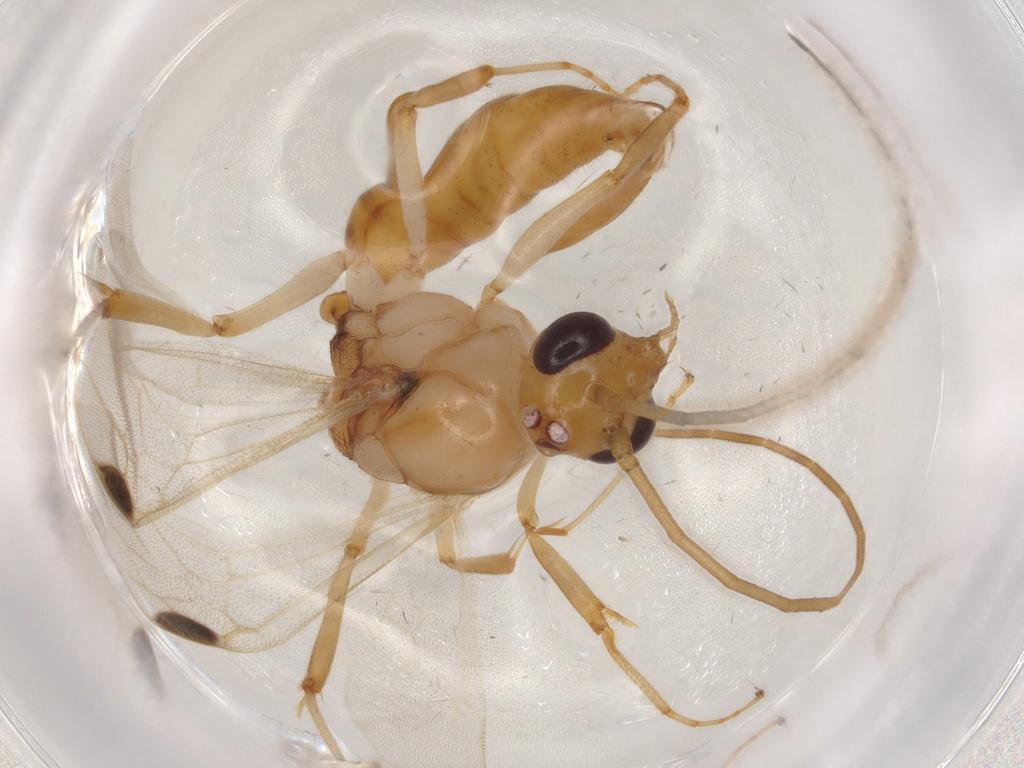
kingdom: Animalia
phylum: Arthropoda
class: Insecta
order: Hymenoptera
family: Formicidae
